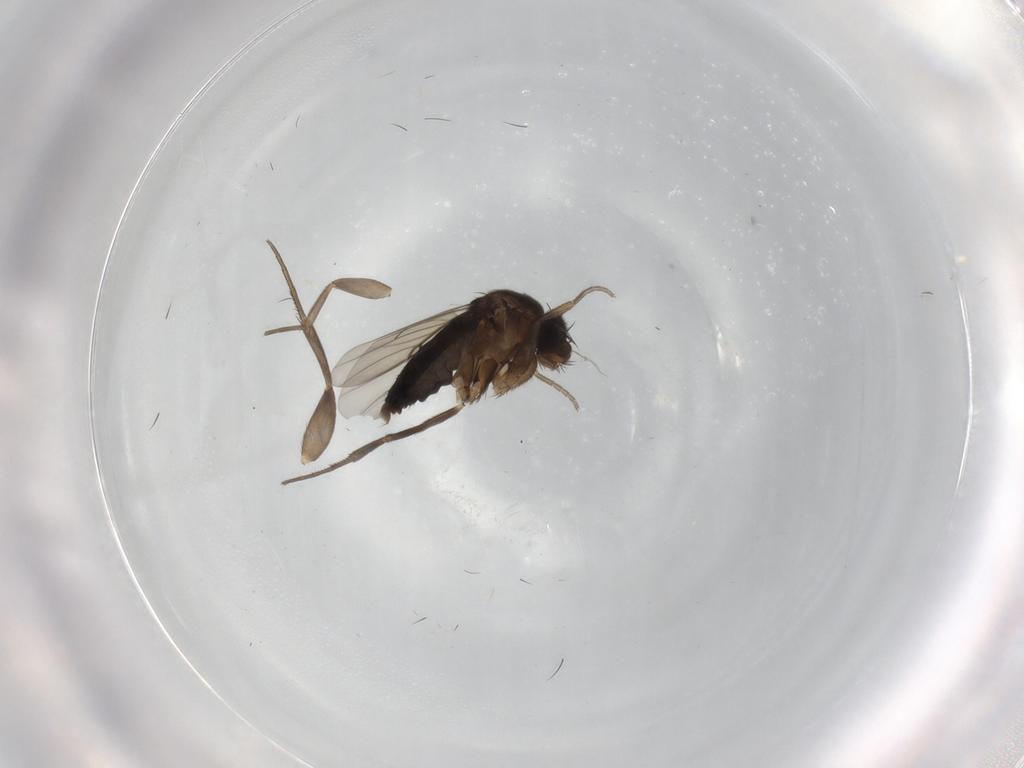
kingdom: Animalia
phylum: Arthropoda
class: Insecta
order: Diptera
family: Phoridae
